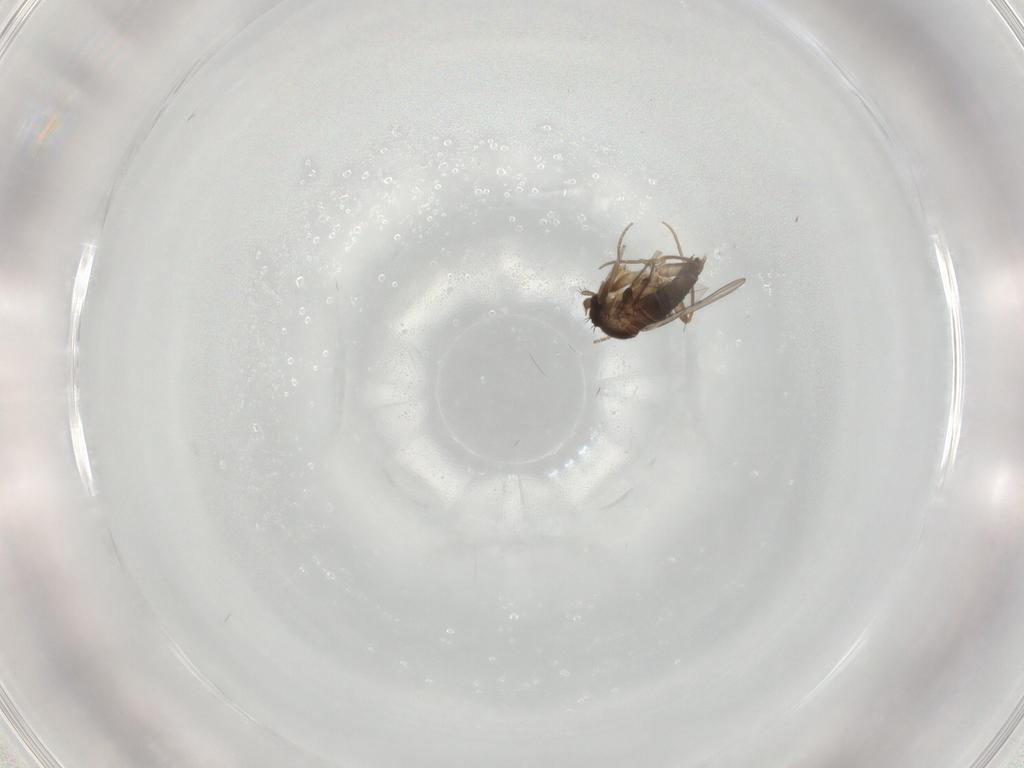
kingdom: Animalia
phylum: Arthropoda
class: Insecta
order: Diptera
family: Phoridae
